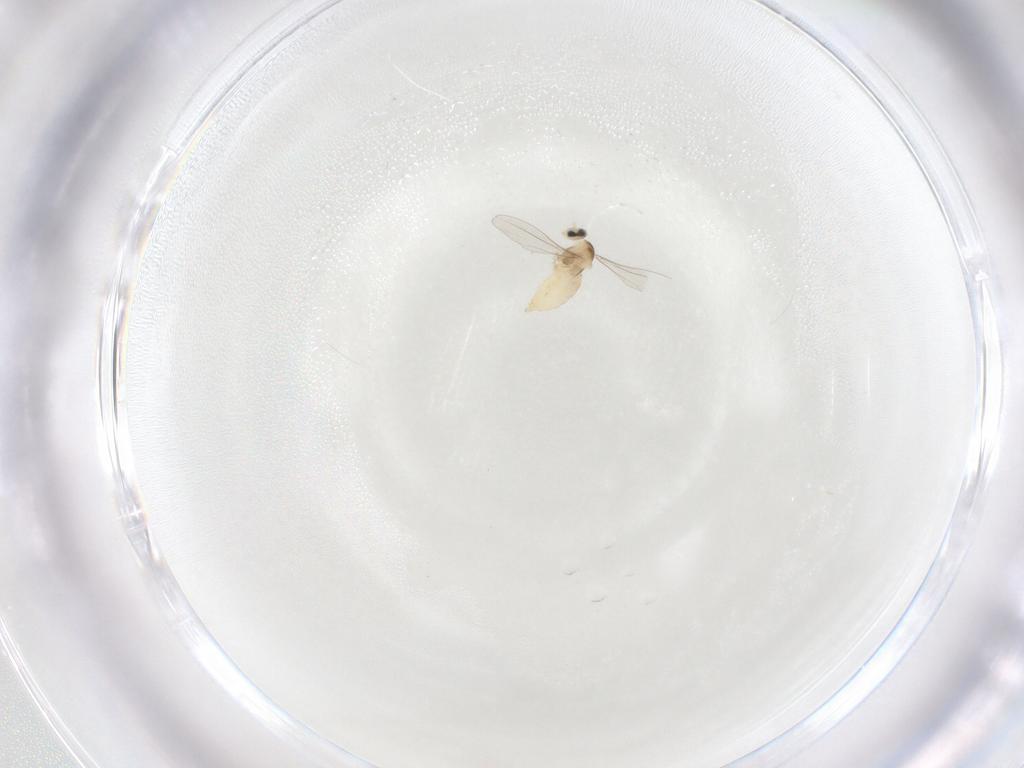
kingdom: Animalia
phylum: Arthropoda
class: Insecta
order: Diptera
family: Cecidomyiidae
